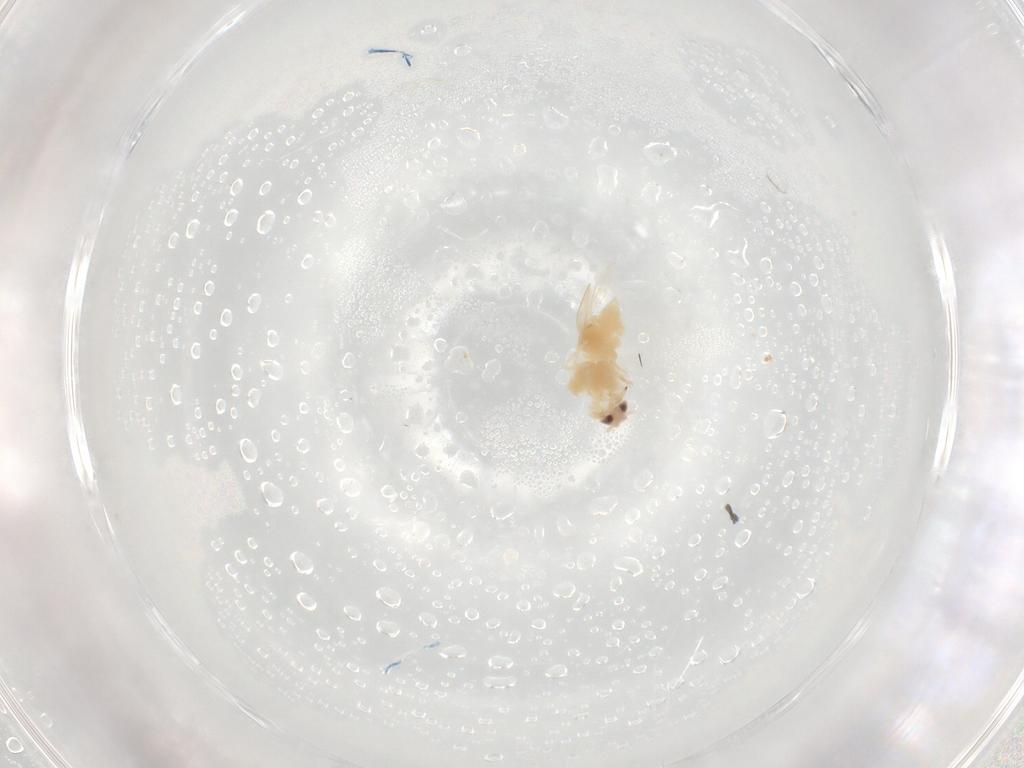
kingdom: Animalia
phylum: Arthropoda
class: Insecta
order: Hemiptera
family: Aleyrodidae
